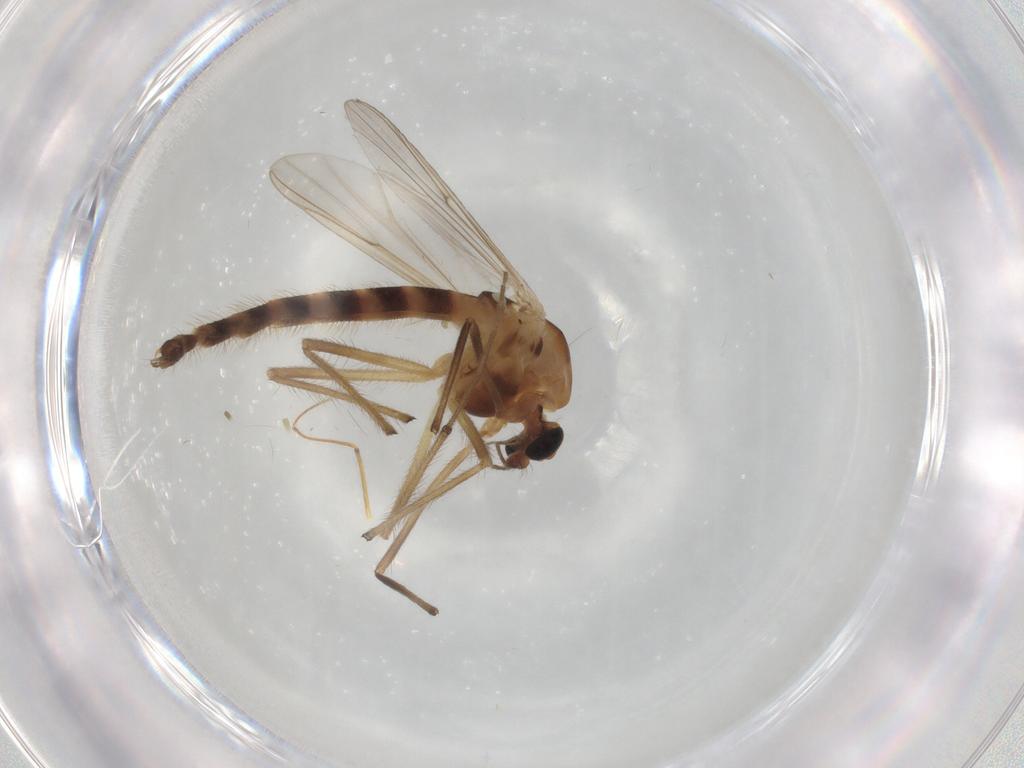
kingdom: Animalia
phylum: Arthropoda
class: Insecta
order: Diptera
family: Chironomidae
